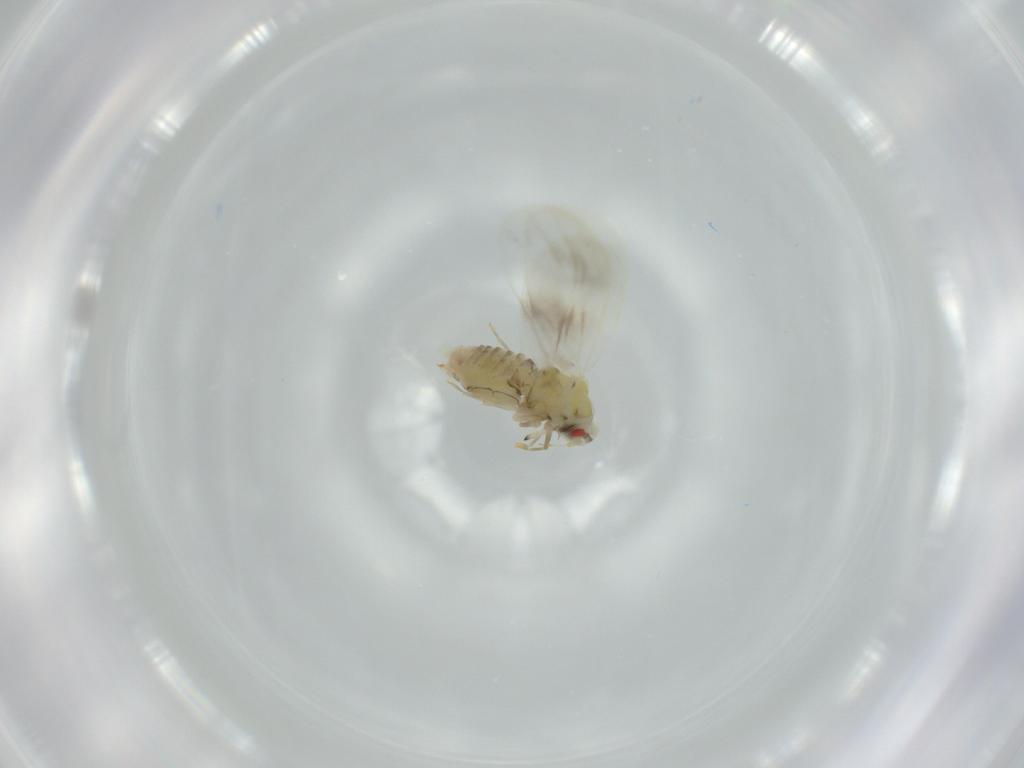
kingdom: Animalia
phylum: Arthropoda
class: Insecta
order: Hemiptera
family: Aleyrodidae
